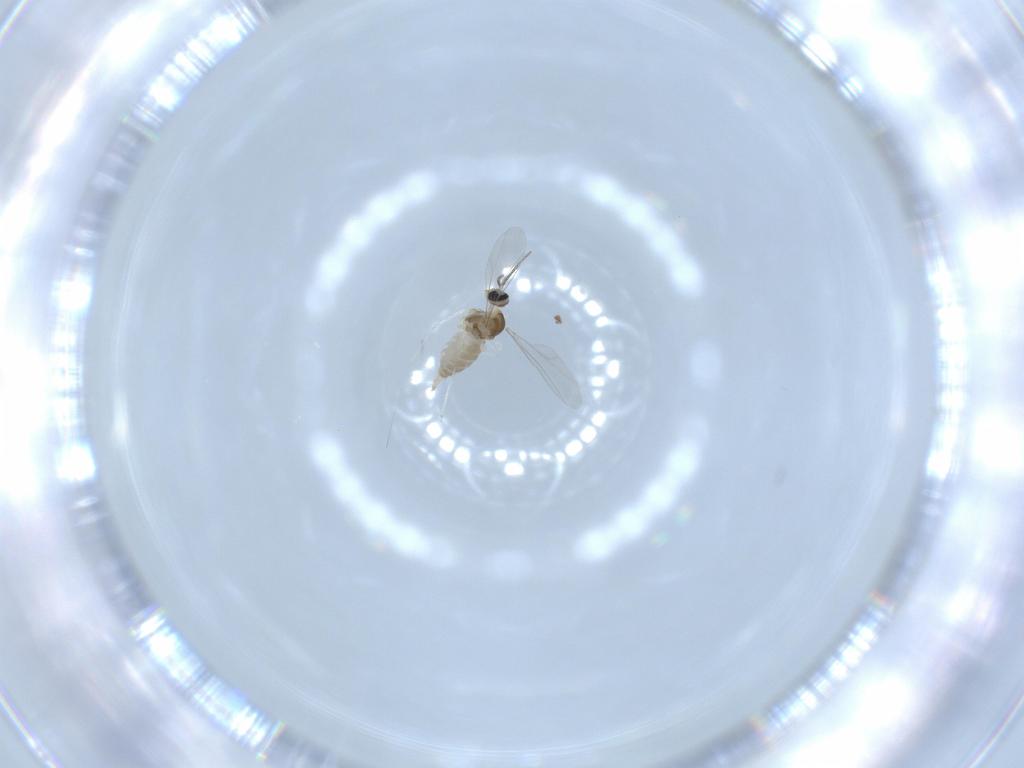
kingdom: Animalia
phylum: Arthropoda
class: Insecta
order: Diptera
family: Cecidomyiidae
